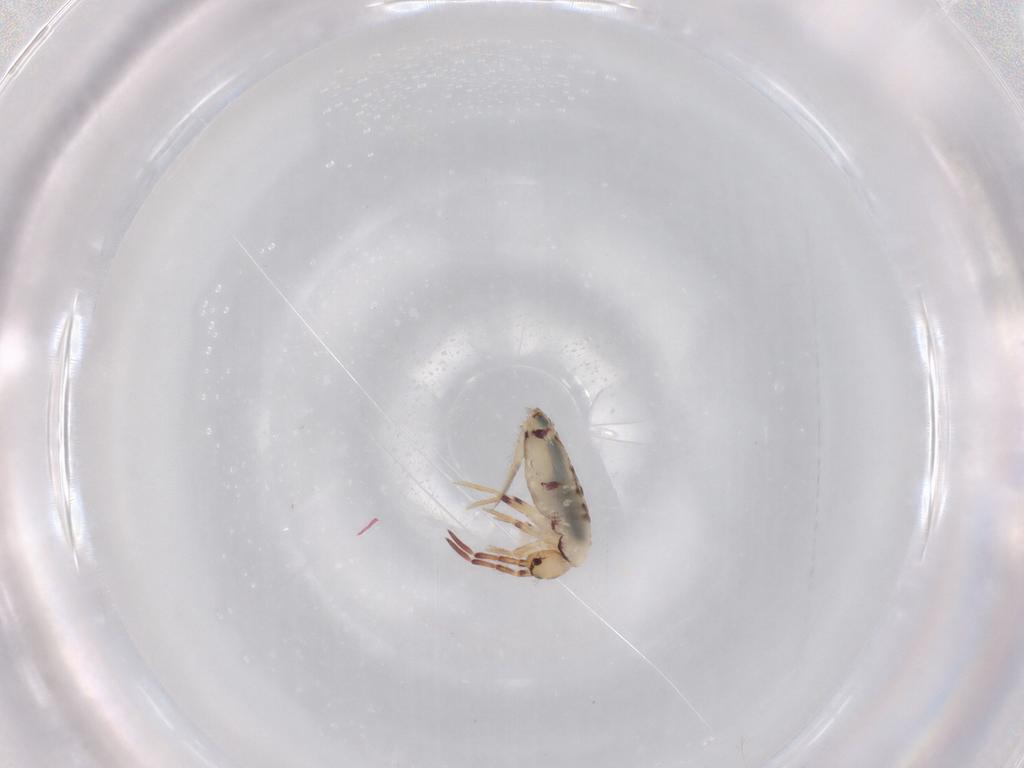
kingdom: Animalia
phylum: Arthropoda
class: Collembola
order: Entomobryomorpha
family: Entomobryidae
